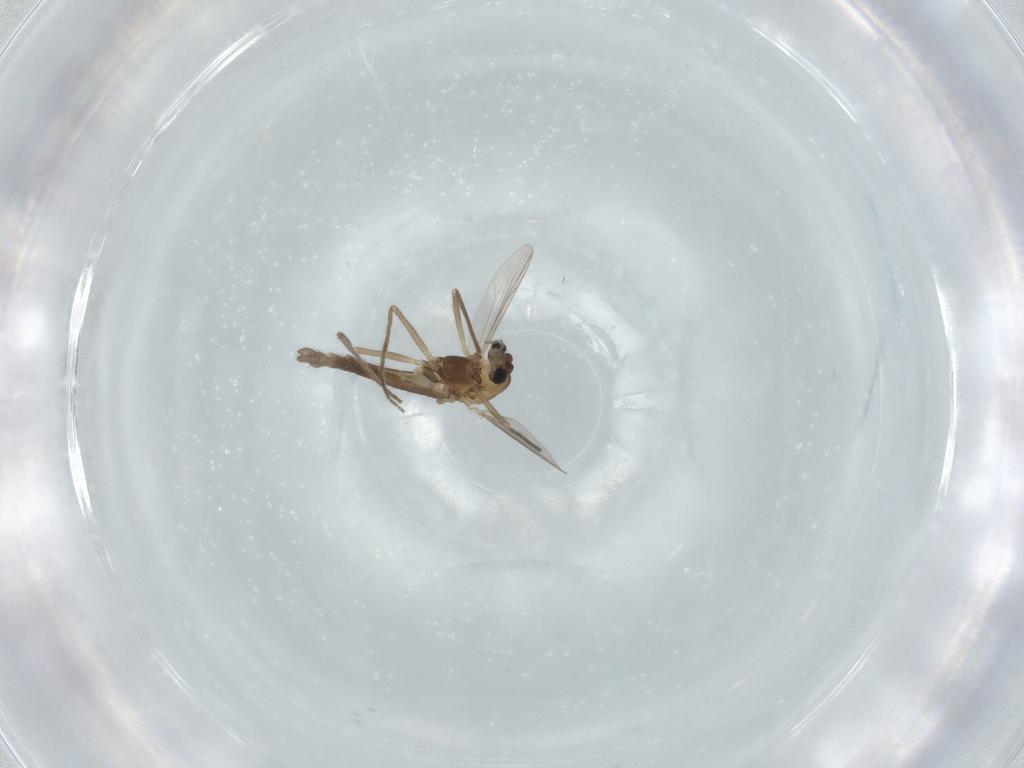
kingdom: Animalia
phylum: Arthropoda
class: Insecta
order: Diptera
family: Chironomidae
